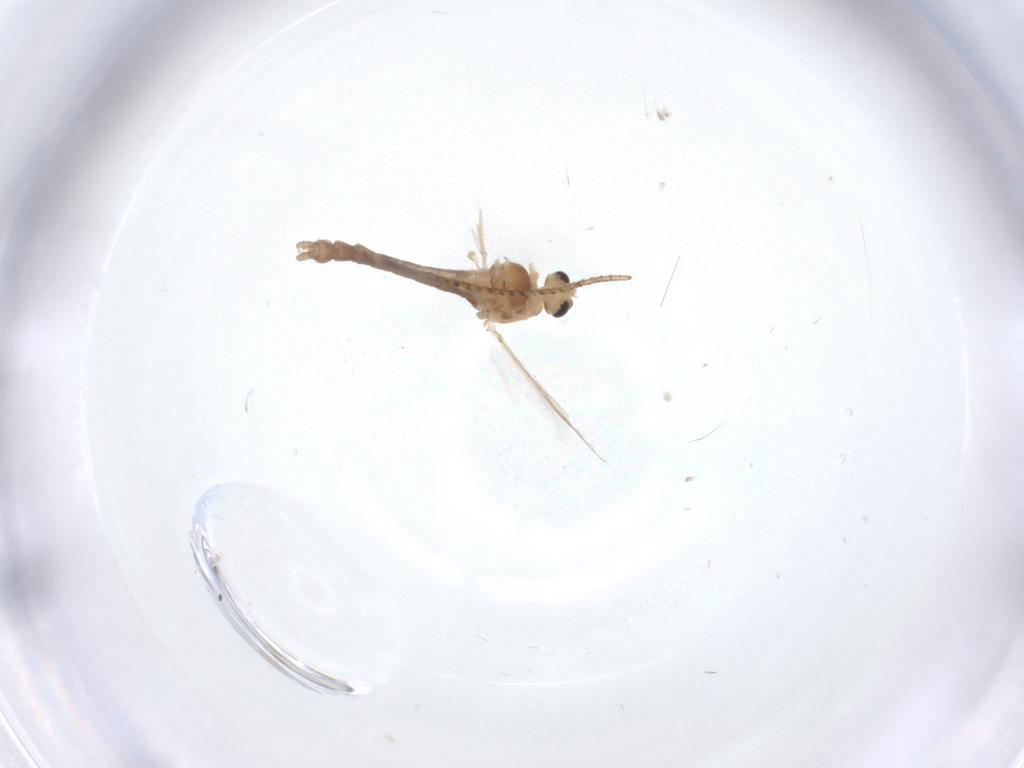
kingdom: Animalia
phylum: Arthropoda
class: Insecta
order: Diptera
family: Chironomidae
